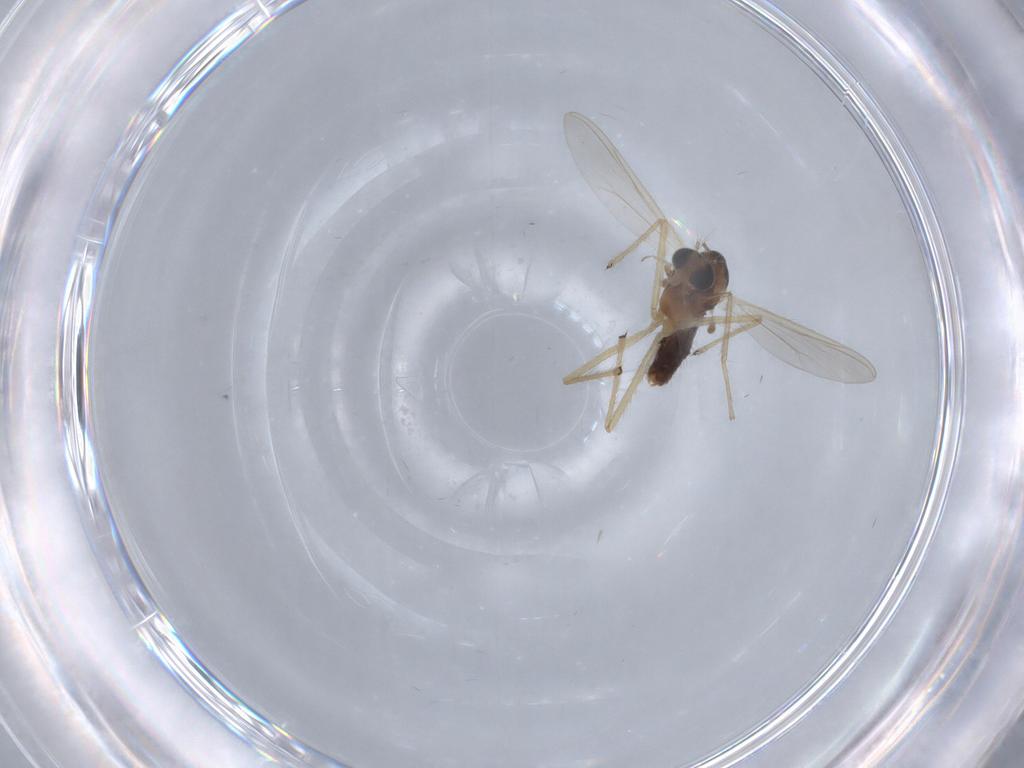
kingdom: Animalia
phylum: Arthropoda
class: Insecta
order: Diptera
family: Chironomidae
